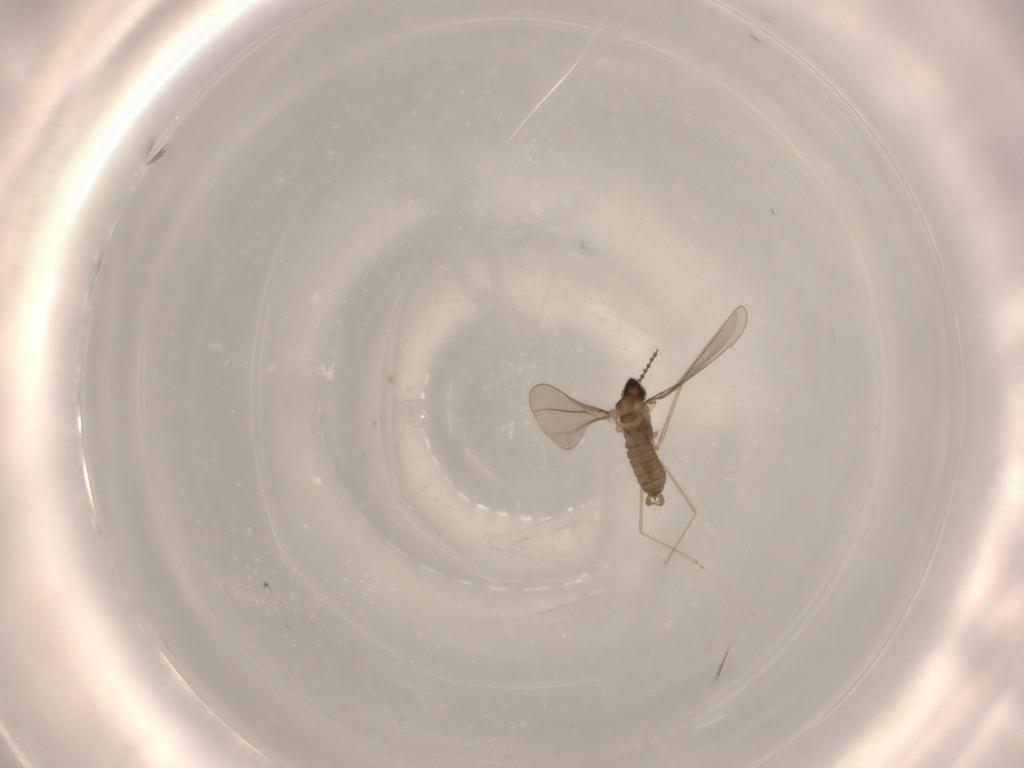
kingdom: Animalia
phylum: Arthropoda
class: Insecta
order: Diptera
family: Cecidomyiidae
